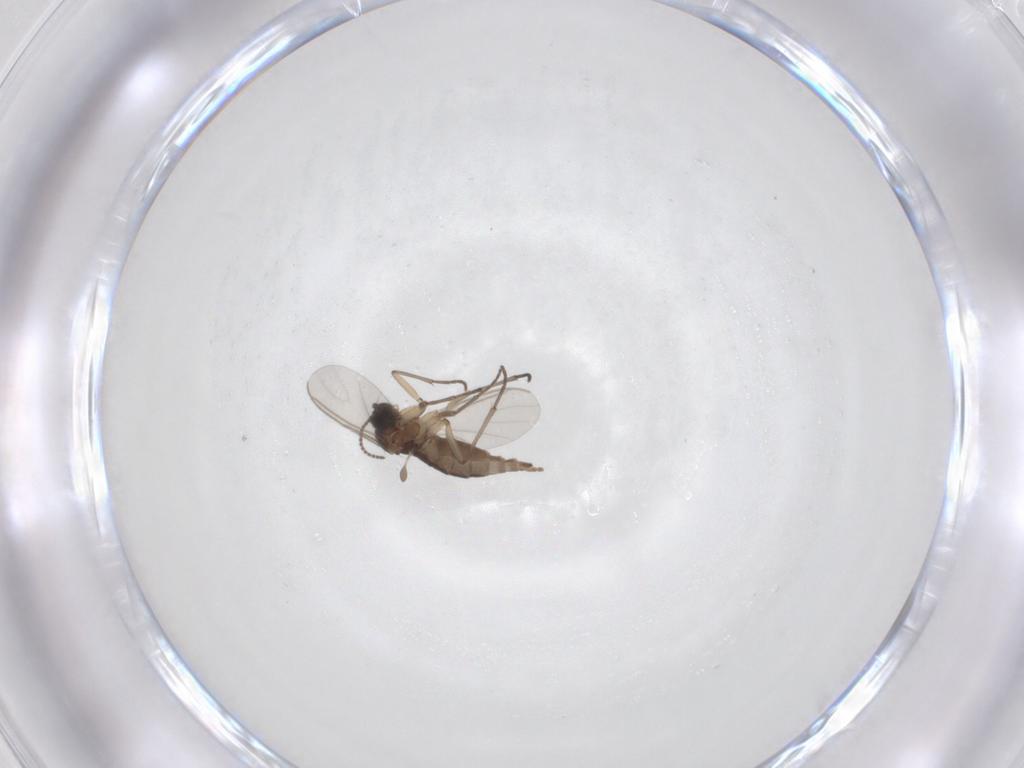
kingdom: Animalia
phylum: Arthropoda
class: Insecta
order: Diptera
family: Sciaridae
